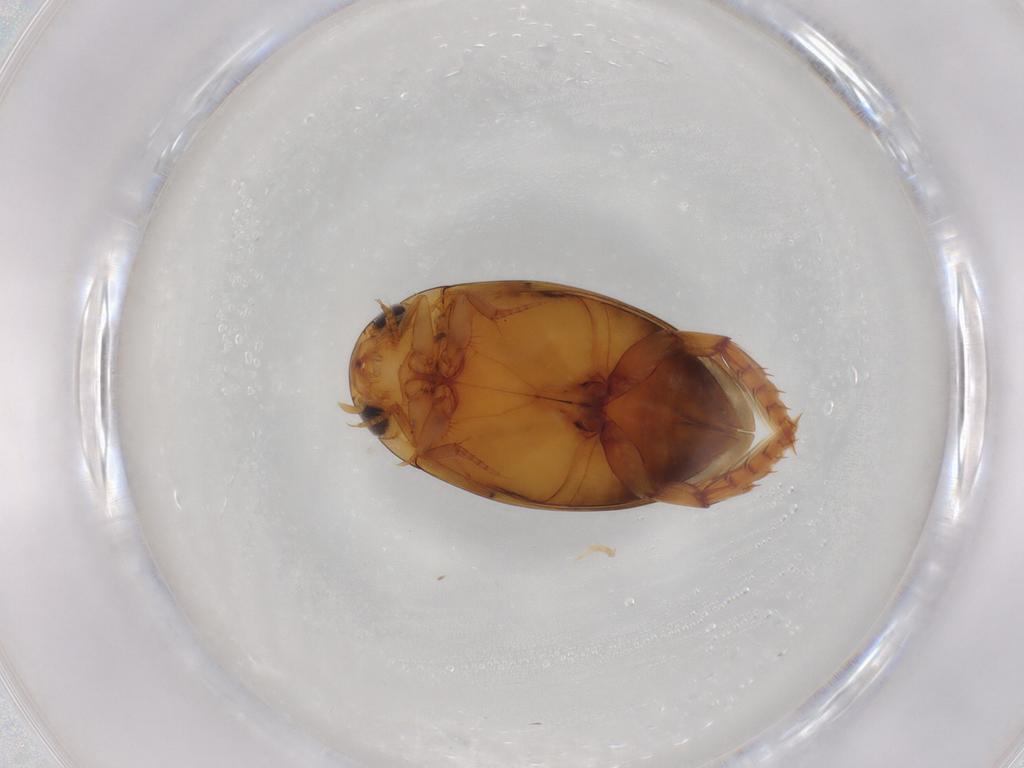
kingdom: Animalia
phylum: Arthropoda
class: Insecta
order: Coleoptera
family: Dytiscidae
